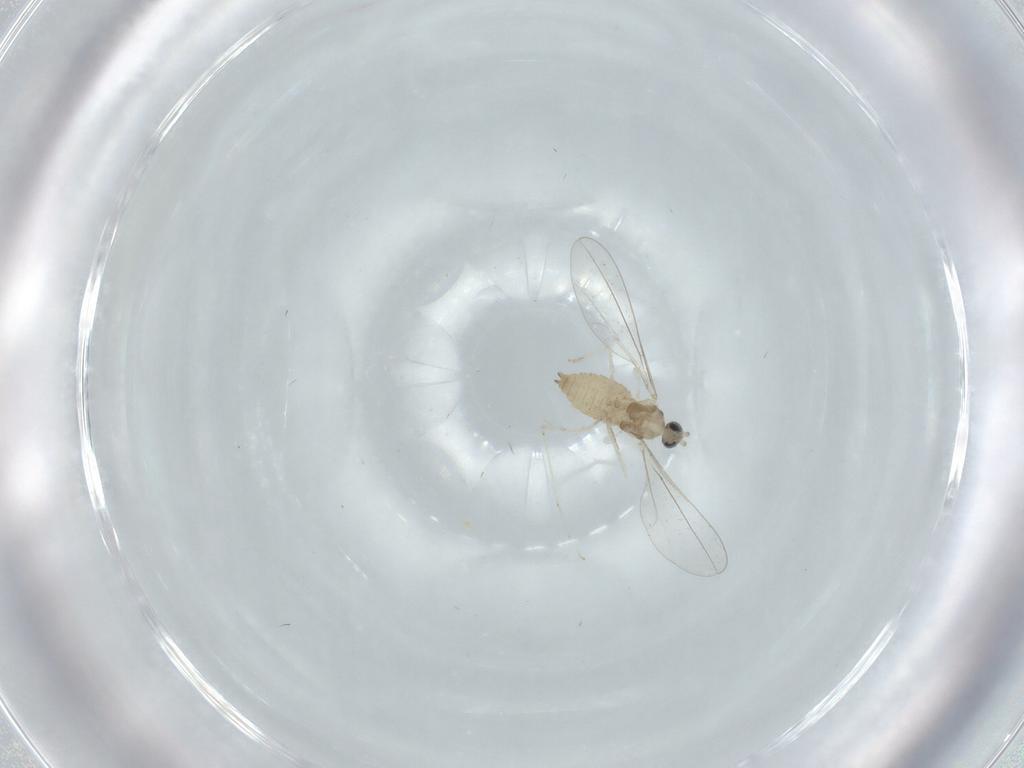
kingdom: Animalia
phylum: Arthropoda
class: Insecta
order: Diptera
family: Cecidomyiidae
